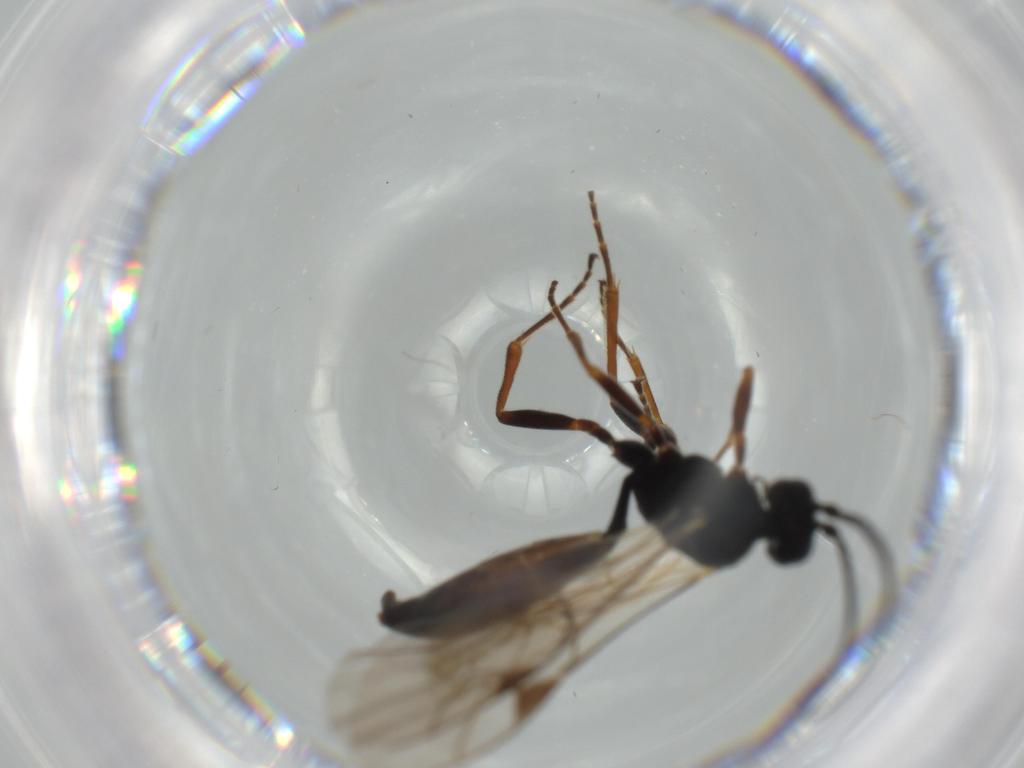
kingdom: Animalia
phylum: Arthropoda
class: Insecta
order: Hymenoptera
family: Ichneumonidae
